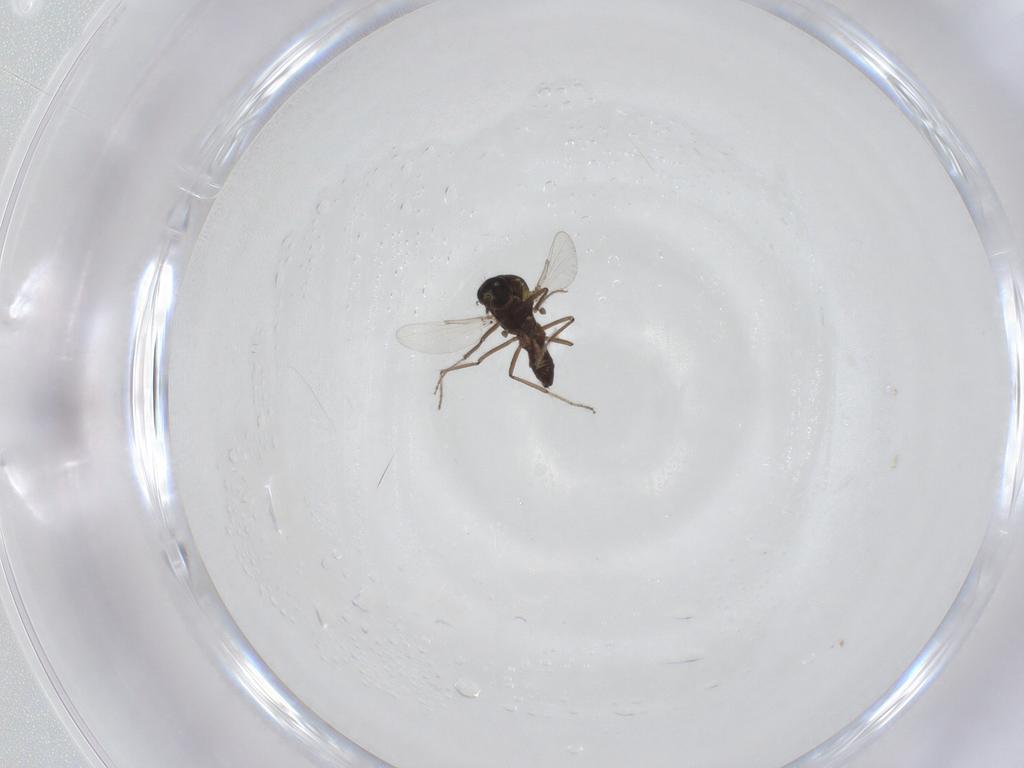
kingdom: Animalia
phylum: Arthropoda
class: Insecta
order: Diptera
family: Ceratopogonidae
